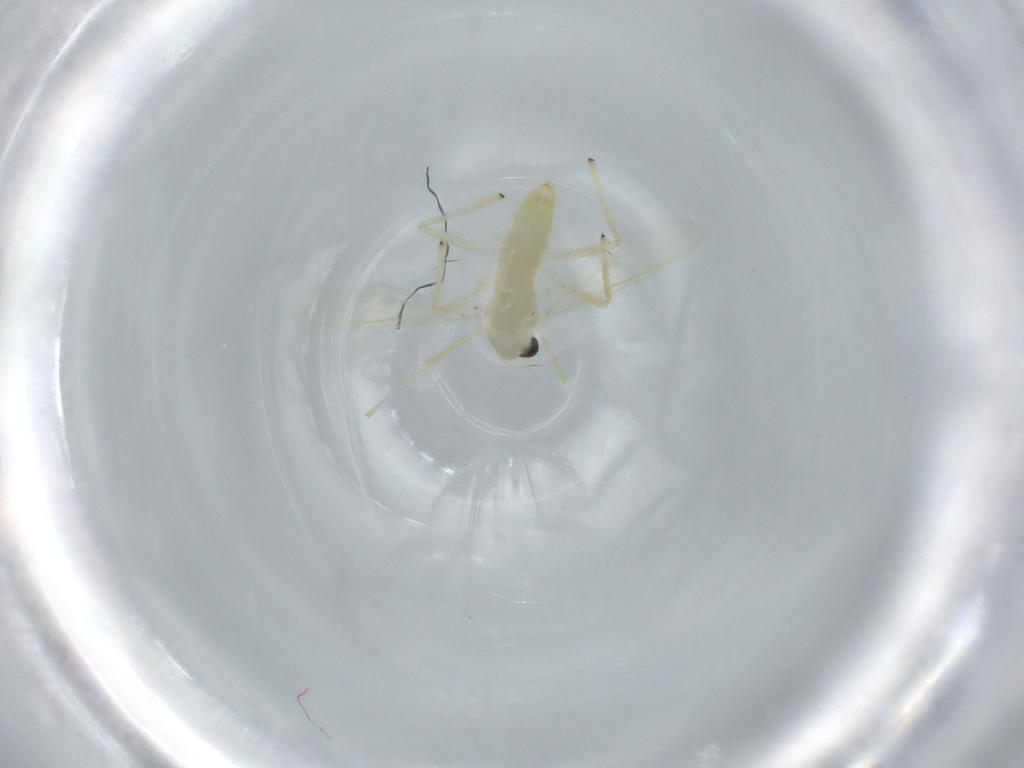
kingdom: Animalia
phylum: Arthropoda
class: Insecta
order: Diptera
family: Chironomidae
